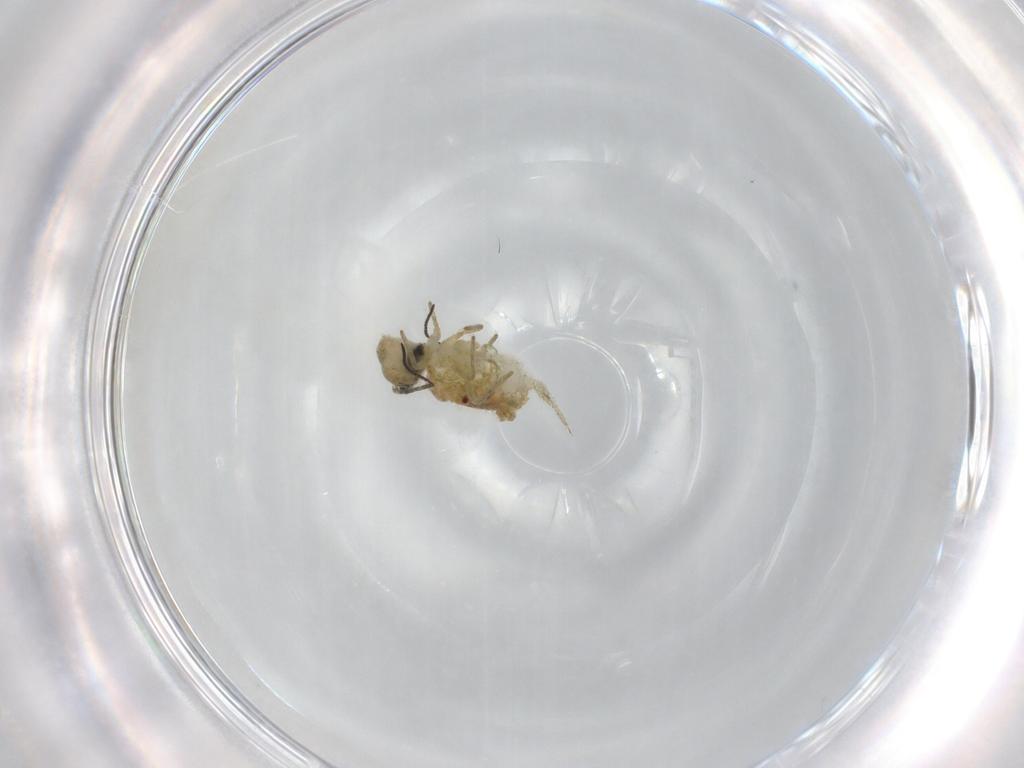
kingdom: Animalia
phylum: Arthropoda
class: Collembola
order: Symphypleona
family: Sminthuridae
